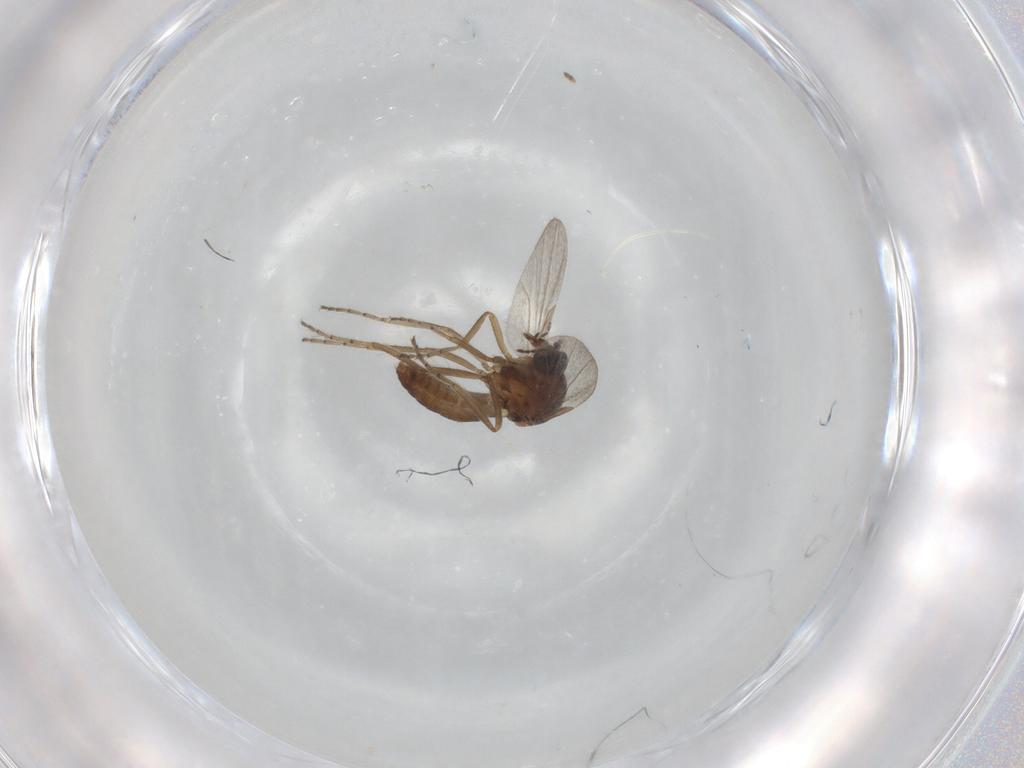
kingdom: Animalia
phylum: Arthropoda
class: Insecta
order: Diptera
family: Ceratopogonidae
